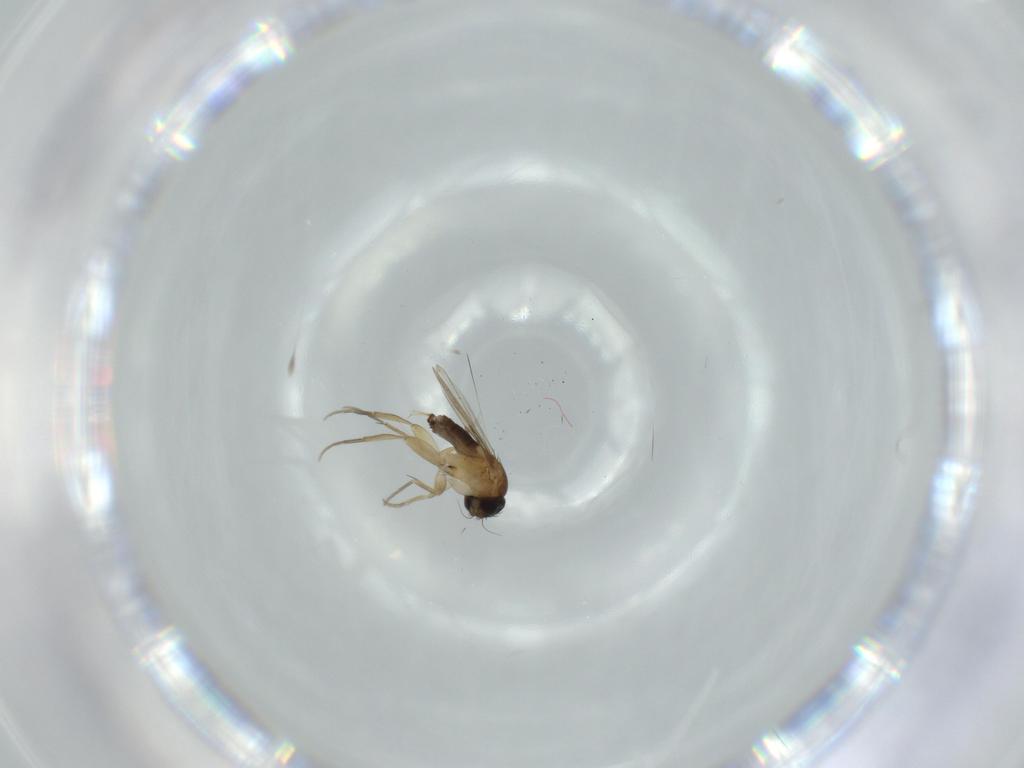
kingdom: Animalia
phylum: Arthropoda
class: Insecta
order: Diptera
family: Phoridae
